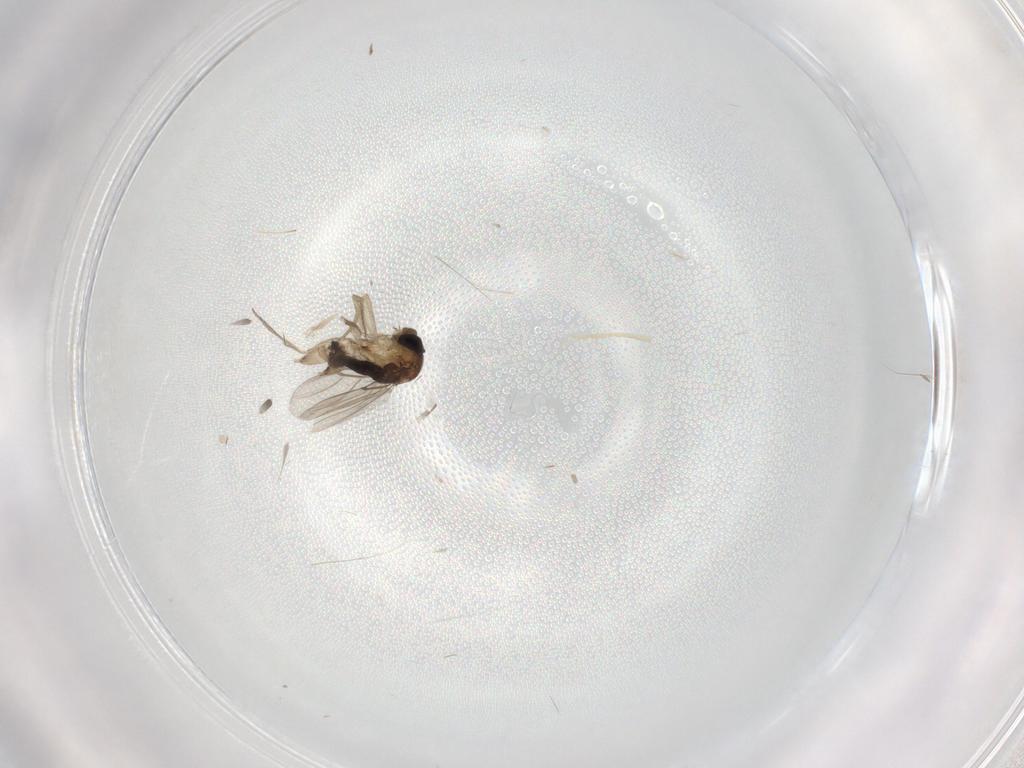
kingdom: Animalia
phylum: Arthropoda
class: Insecta
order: Diptera
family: Phoridae
